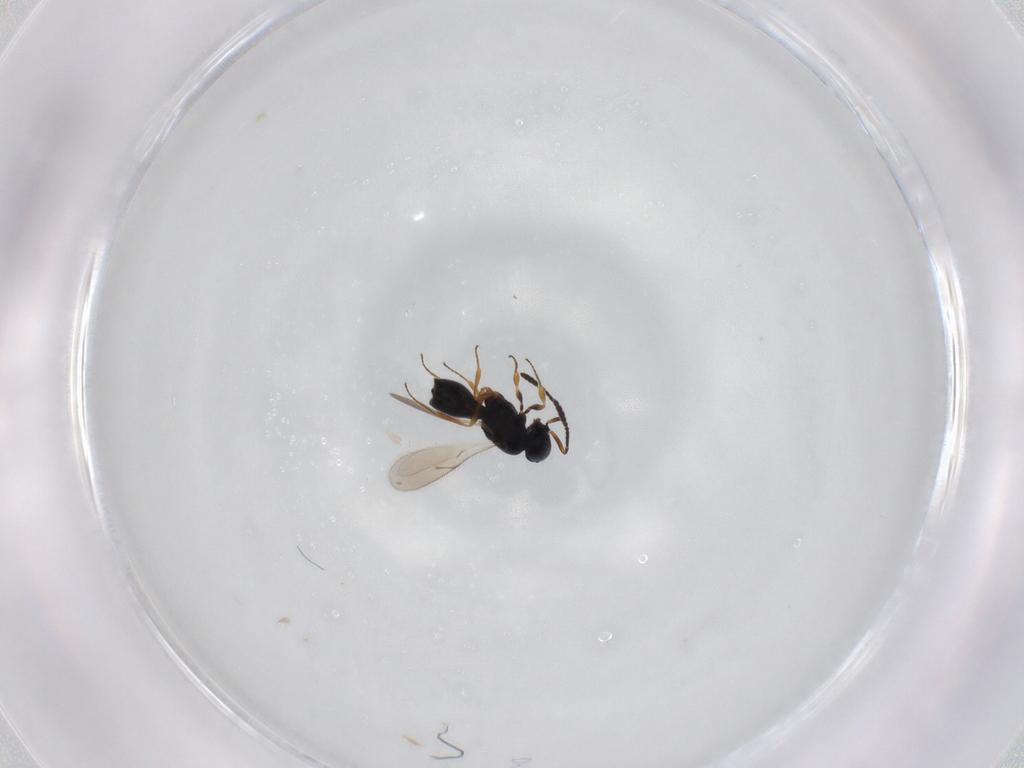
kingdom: Animalia
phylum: Arthropoda
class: Insecta
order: Hymenoptera
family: Scelionidae
